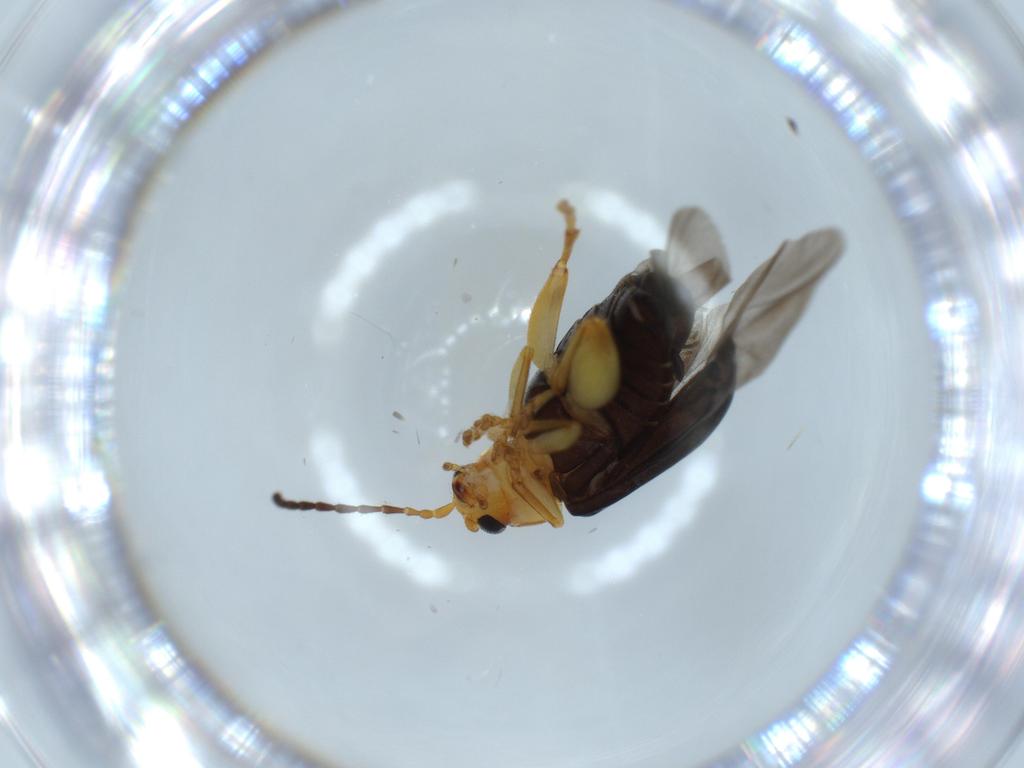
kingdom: Animalia
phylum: Arthropoda
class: Insecta
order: Coleoptera
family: Chrysomelidae
